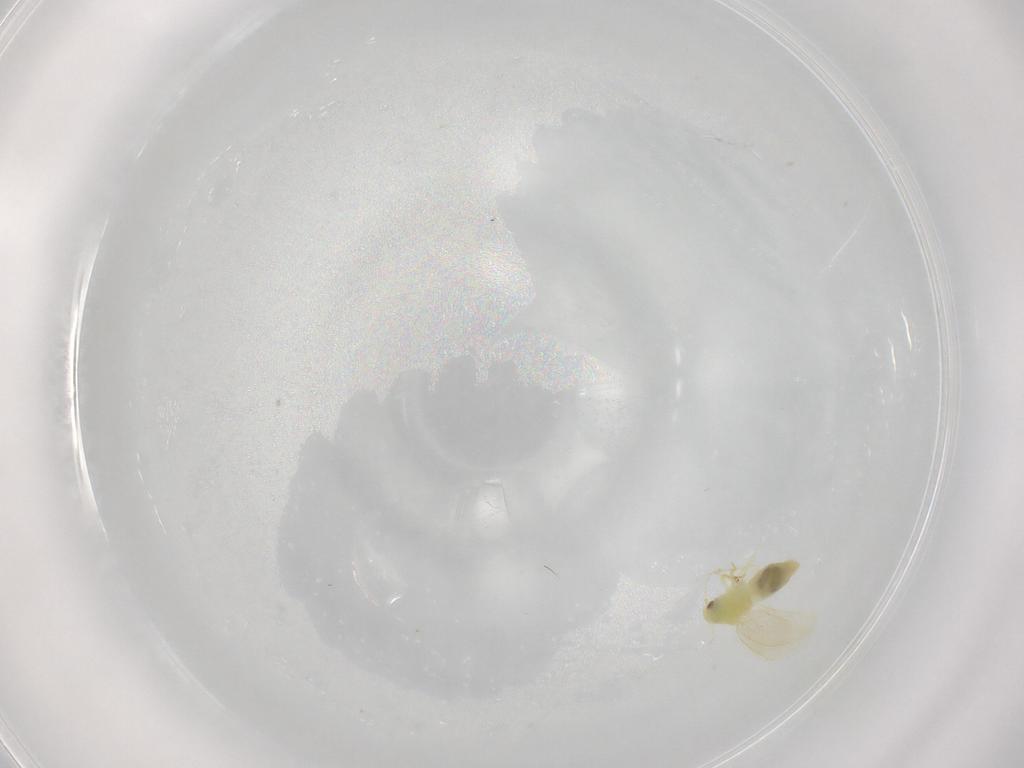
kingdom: Animalia
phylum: Arthropoda
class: Insecta
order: Hemiptera
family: Aleyrodidae
